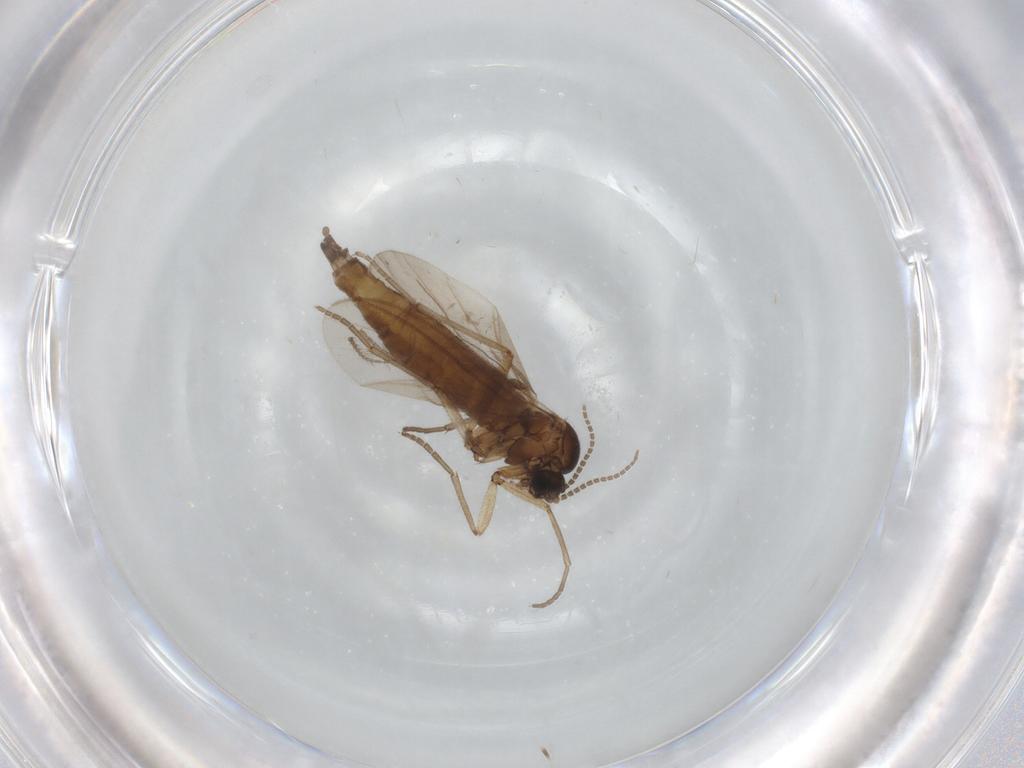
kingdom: Animalia
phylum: Arthropoda
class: Insecta
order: Diptera
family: Sciaridae
